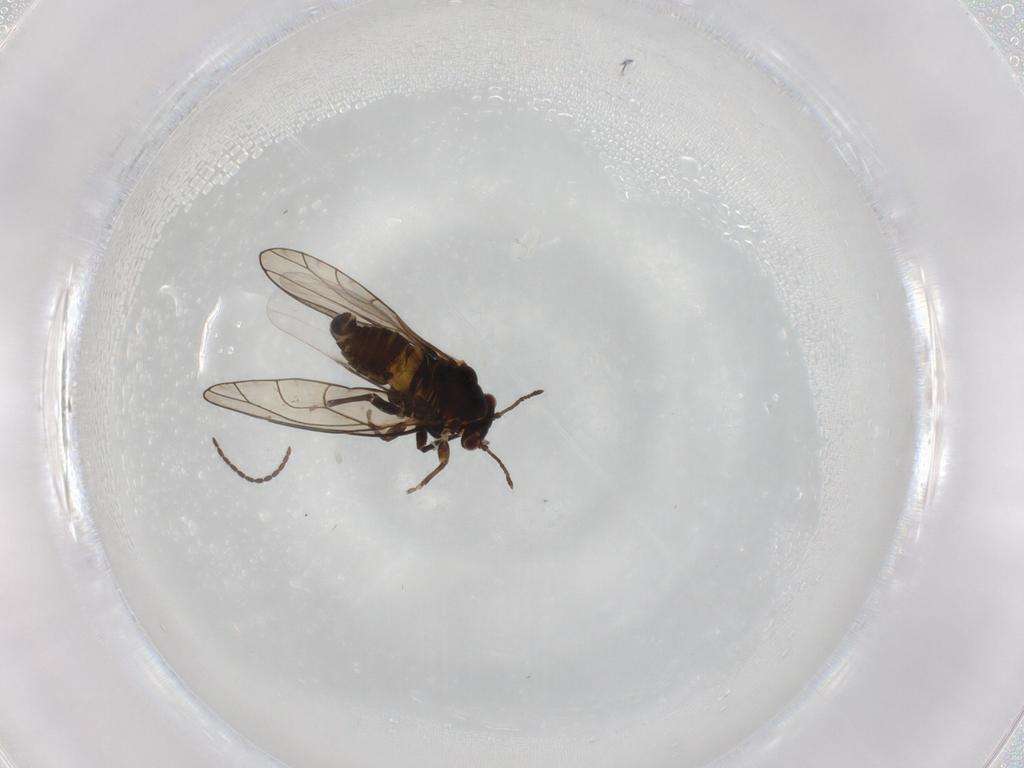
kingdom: Animalia
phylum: Arthropoda
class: Insecta
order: Hemiptera
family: Psylloidea_incertae_sedis
